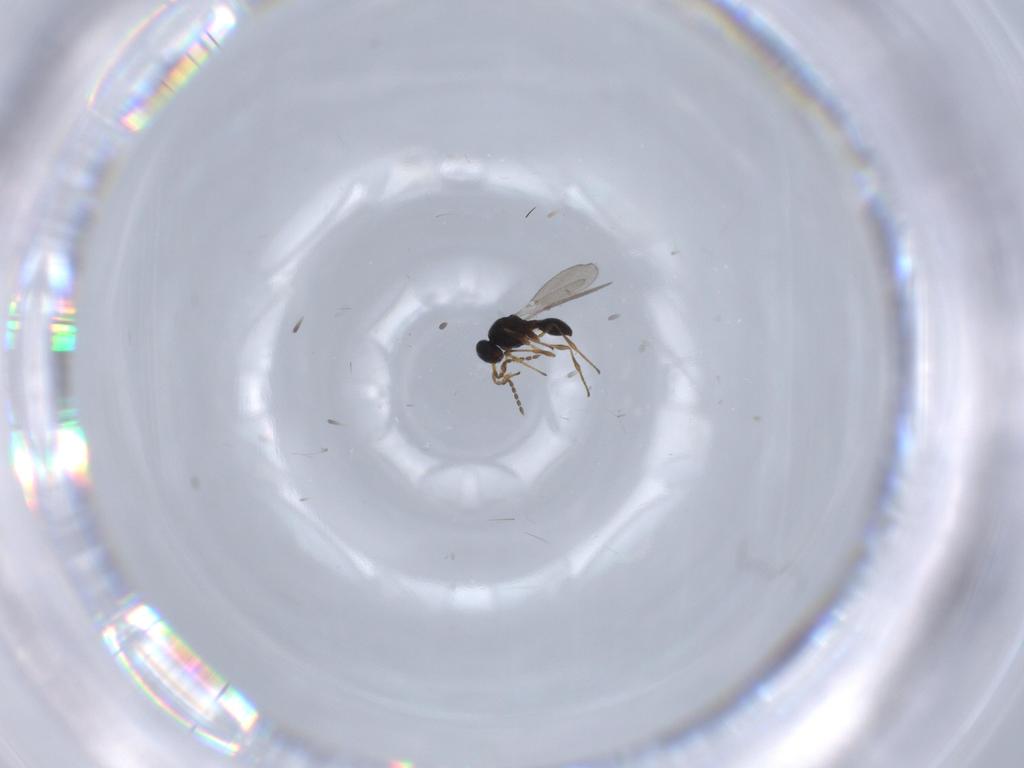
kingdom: Animalia
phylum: Arthropoda
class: Insecta
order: Diptera
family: Mythicomyiidae
